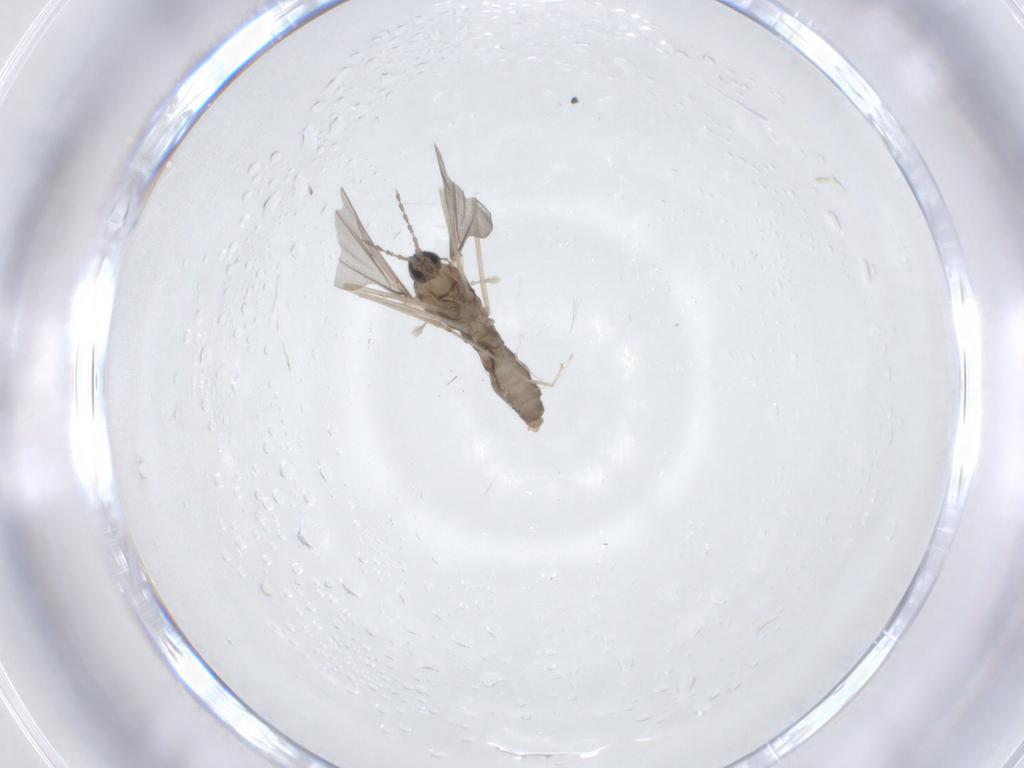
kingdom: Animalia
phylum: Arthropoda
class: Insecta
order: Diptera
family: Cecidomyiidae
